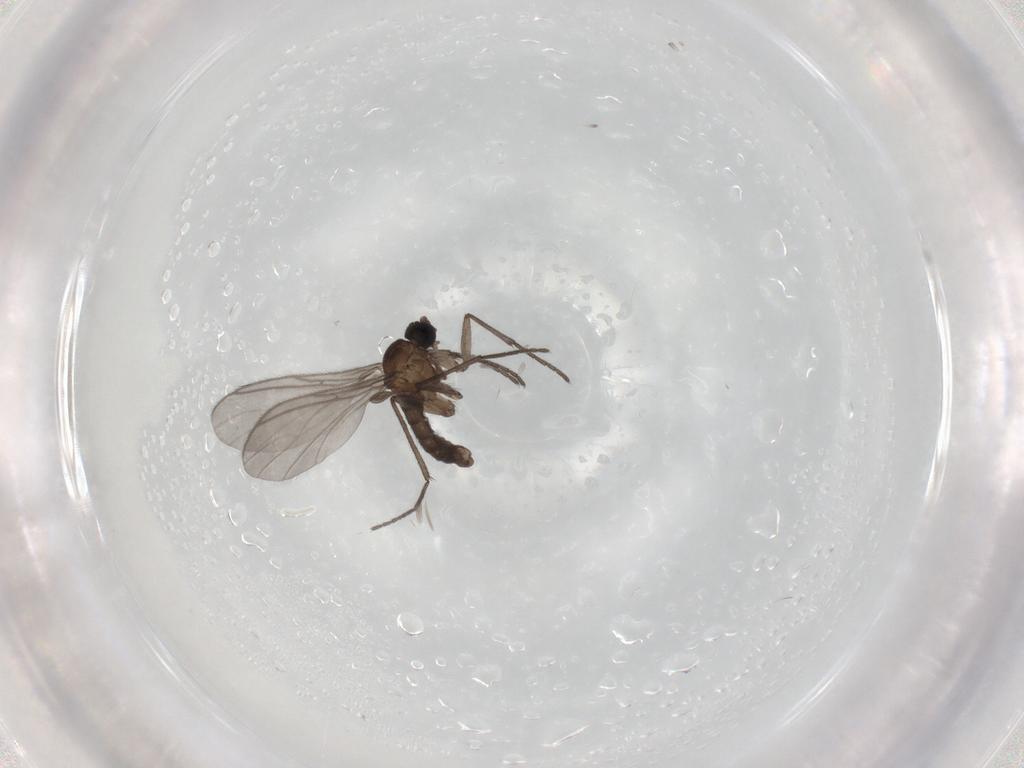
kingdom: Animalia
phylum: Arthropoda
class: Insecta
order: Diptera
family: Sciaridae
